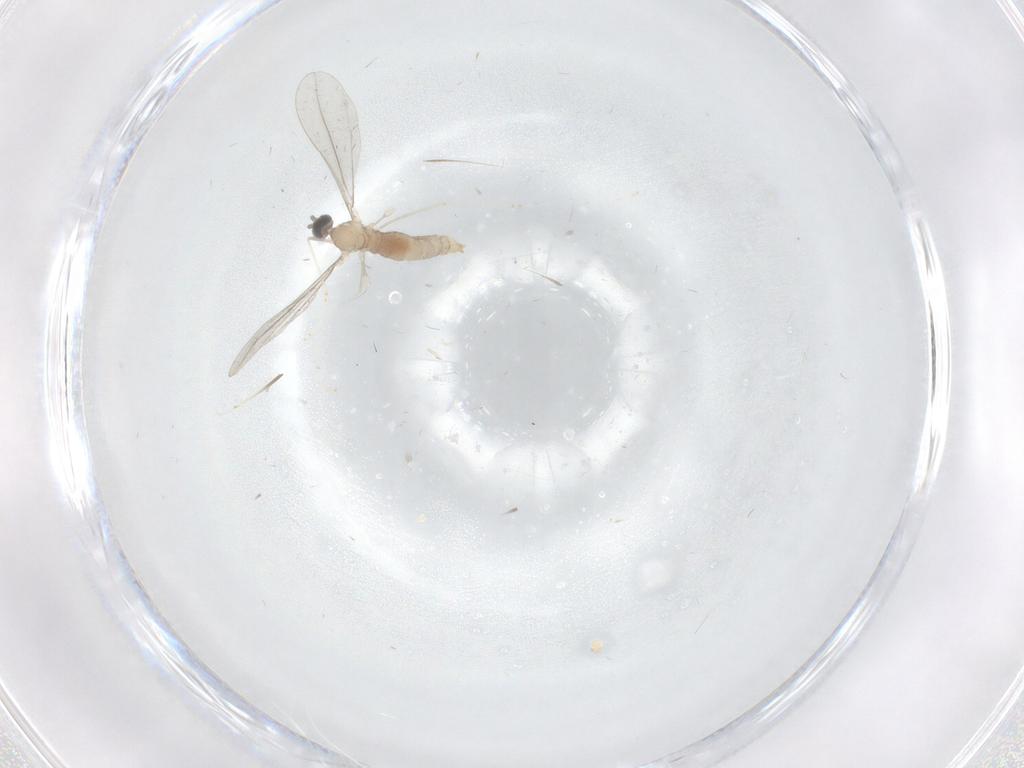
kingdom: Animalia
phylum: Arthropoda
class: Insecta
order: Diptera
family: Cecidomyiidae
